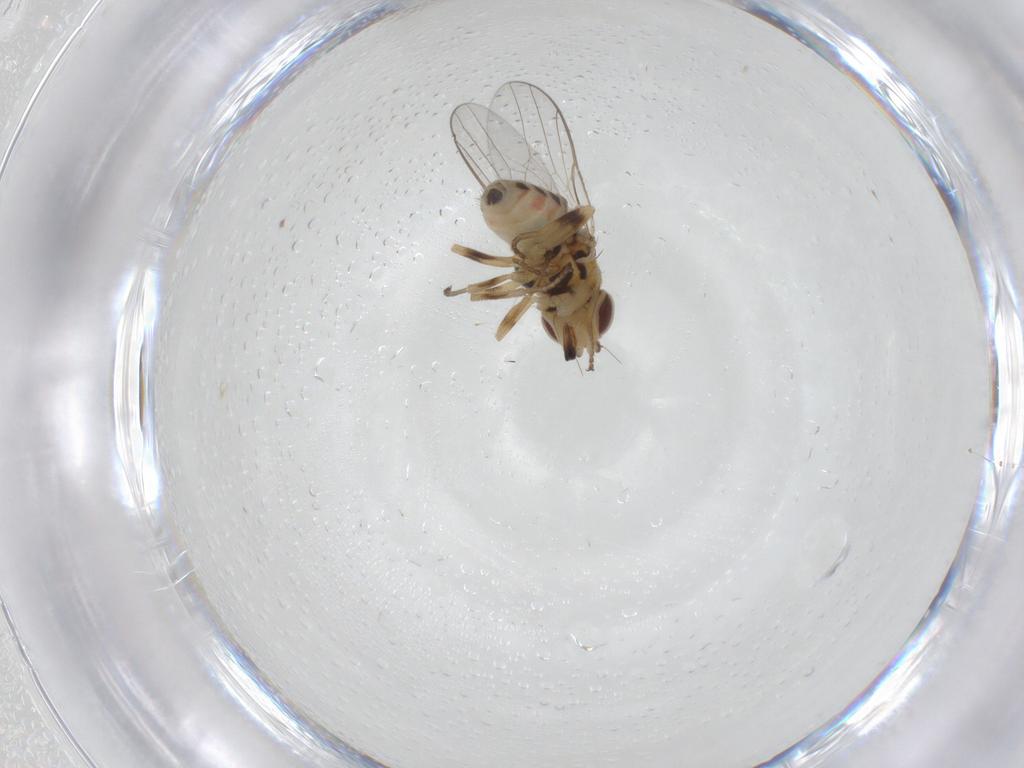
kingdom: Animalia
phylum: Arthropoda
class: Insecta
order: Diptera
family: Chloropidae
